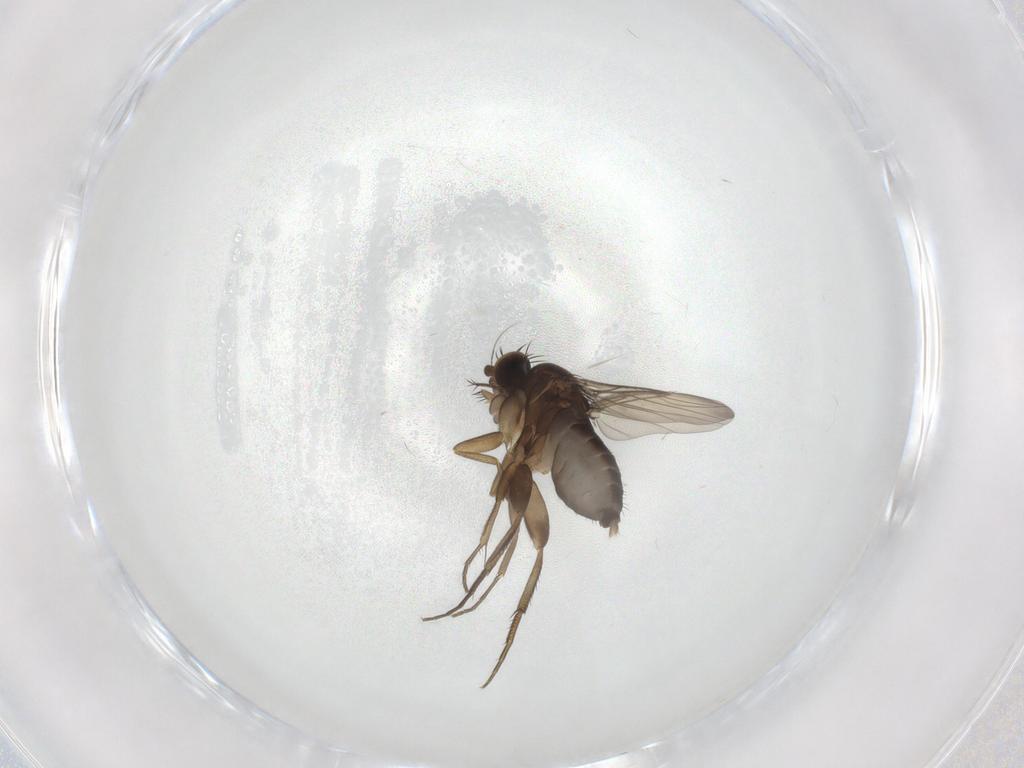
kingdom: Animalia
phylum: Arthropoda
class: Insecta
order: Diptera
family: Phoridae
